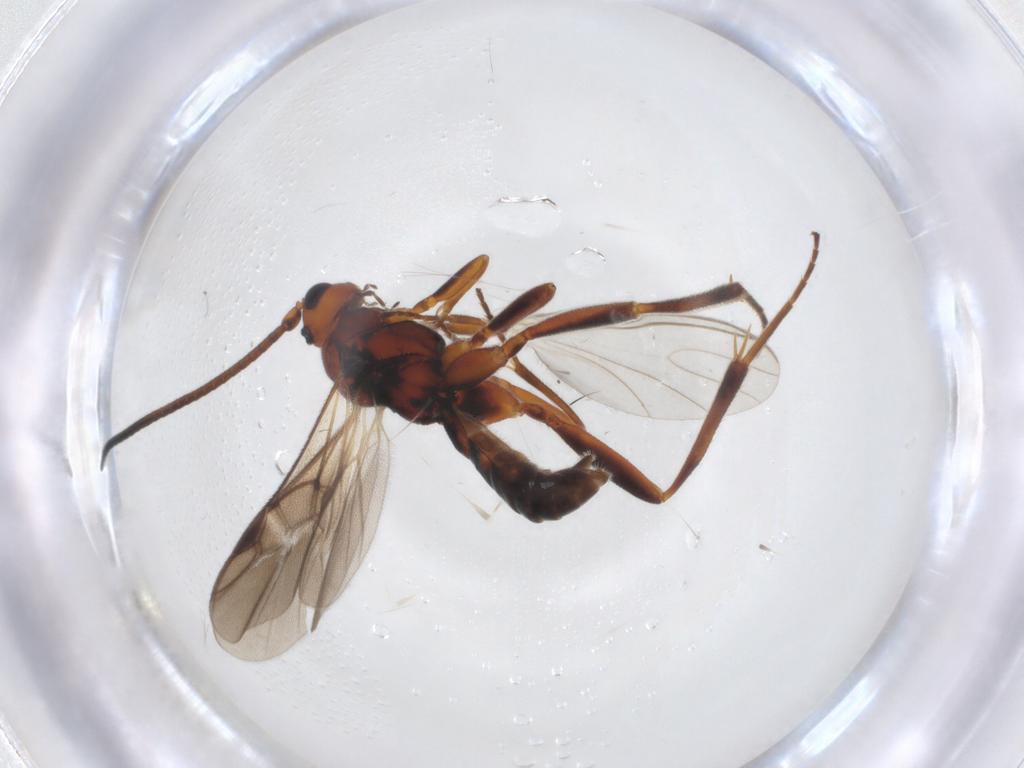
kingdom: Animalia
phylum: Arthropoda
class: Insecta
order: Hymenoptera
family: Braconidae
